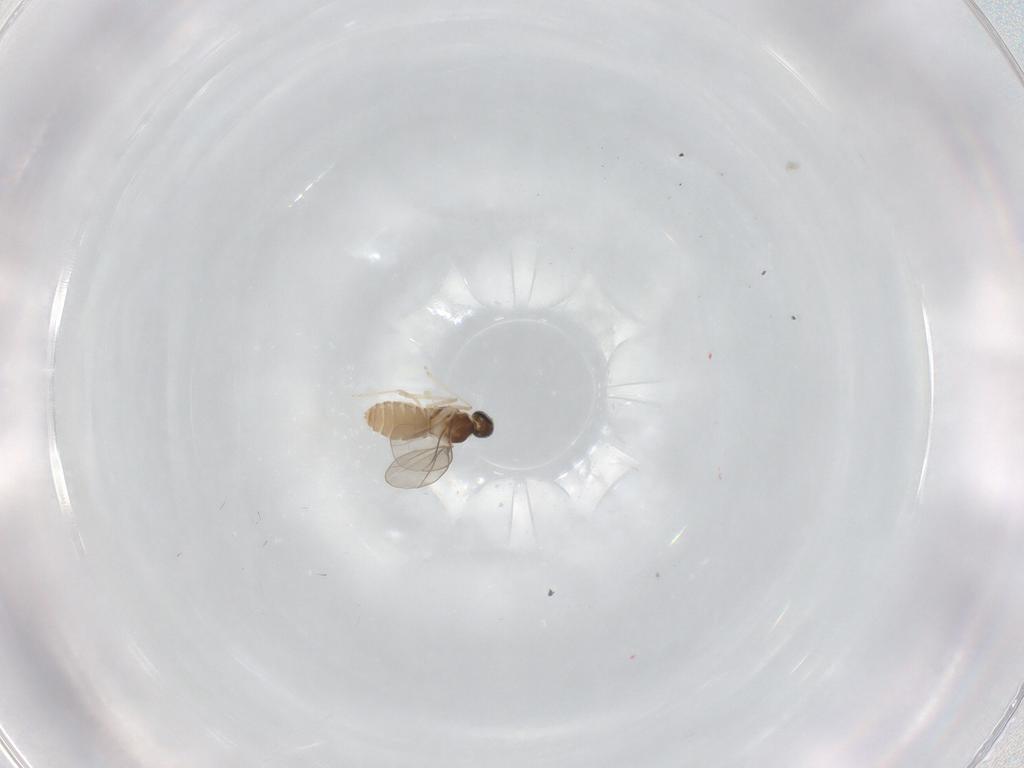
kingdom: Animalia
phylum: Arthropoda
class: Insecta
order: Diptera
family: Cecidomyiidae
